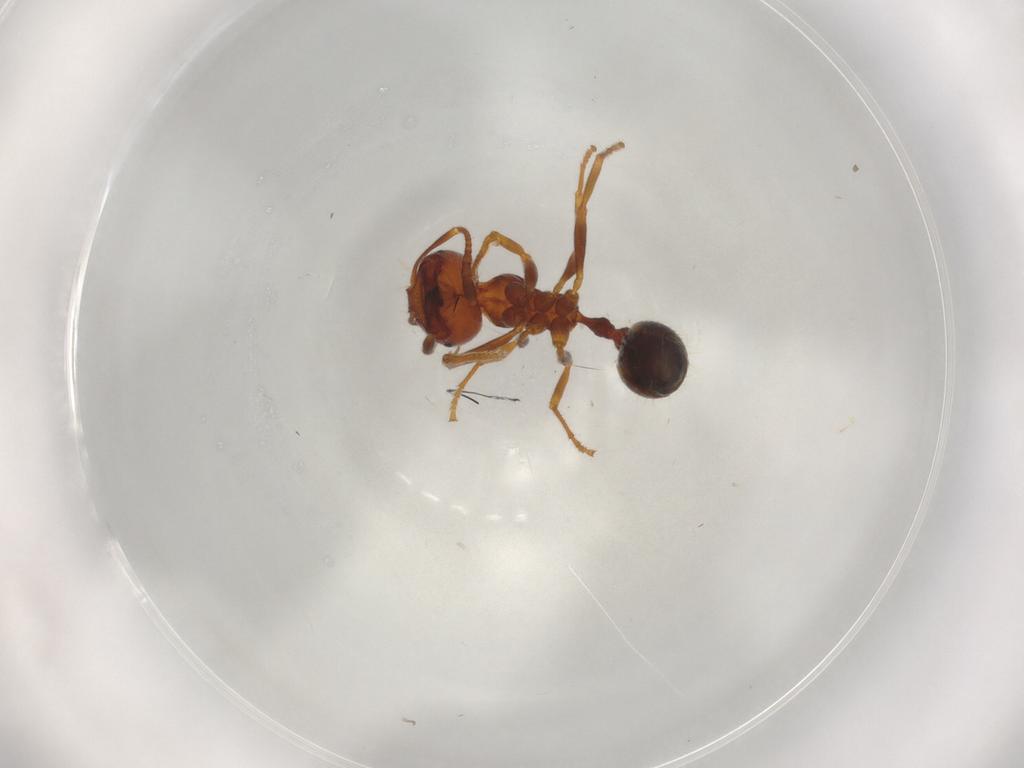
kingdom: Animalia
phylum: Arthropoda
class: Insecta
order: Hymenoptera
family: Formicidae
